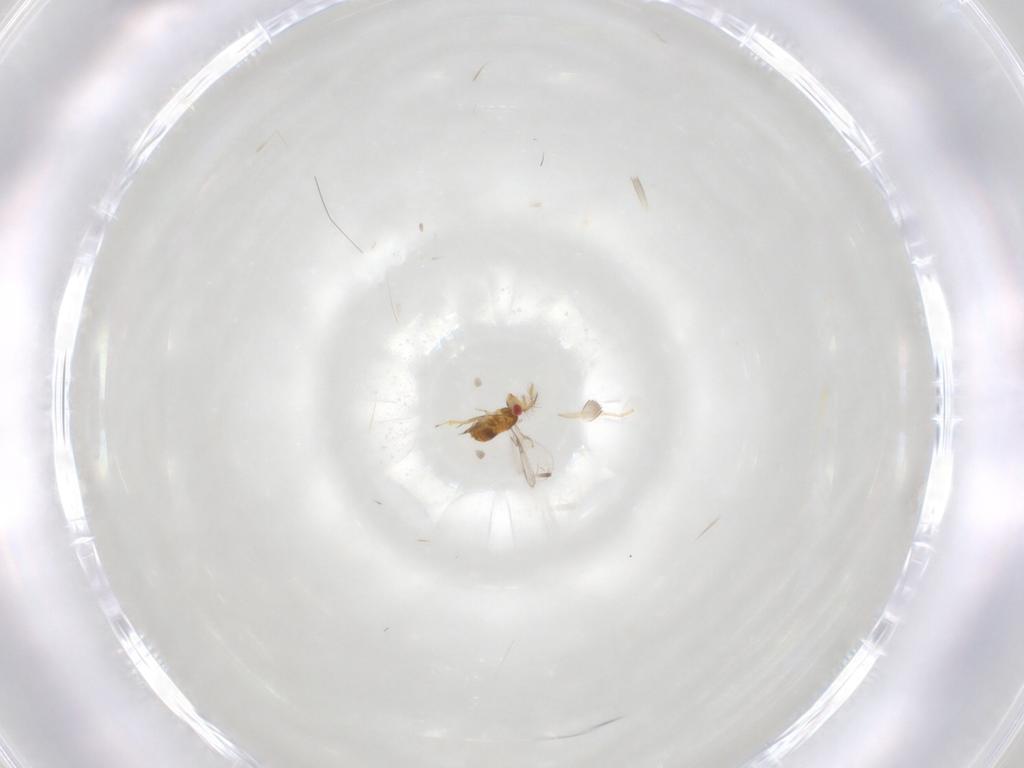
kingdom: Animalia
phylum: Arthropoda
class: Insecta
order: Hymenoptera
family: Trichogrammatidae
